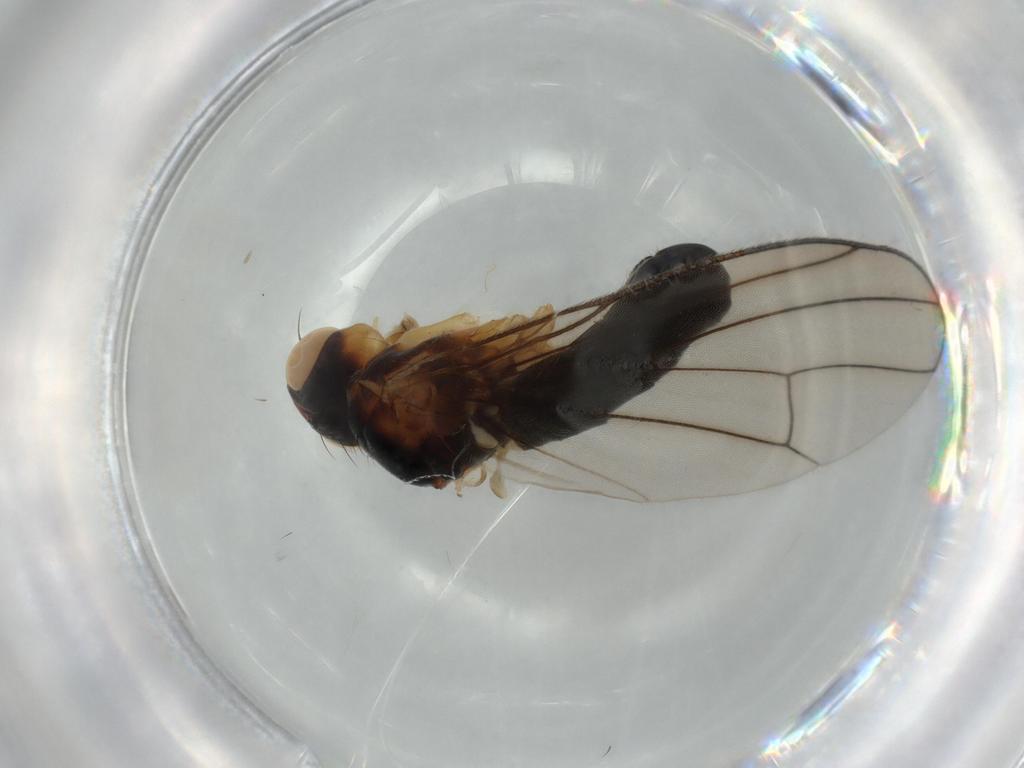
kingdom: Animalia
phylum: Arthropoda
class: Insecta
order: Diptera
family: Muscidae
